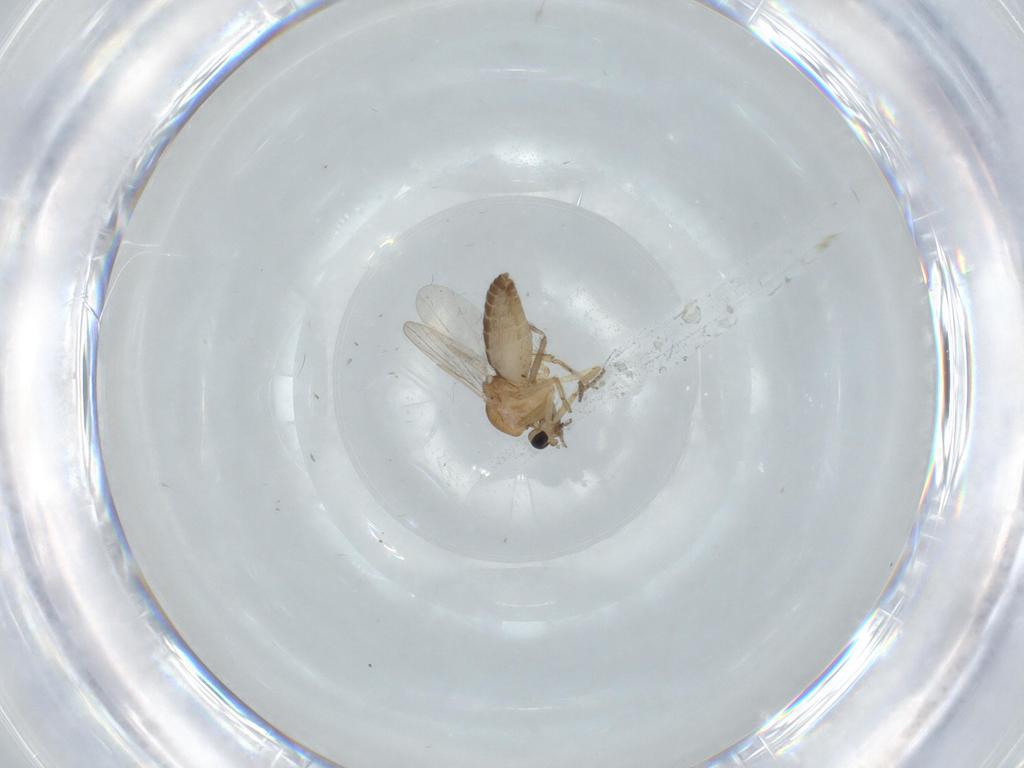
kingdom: Animalia
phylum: Arthropoda
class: Insecta
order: Diptera
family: Ceratopogonidae
